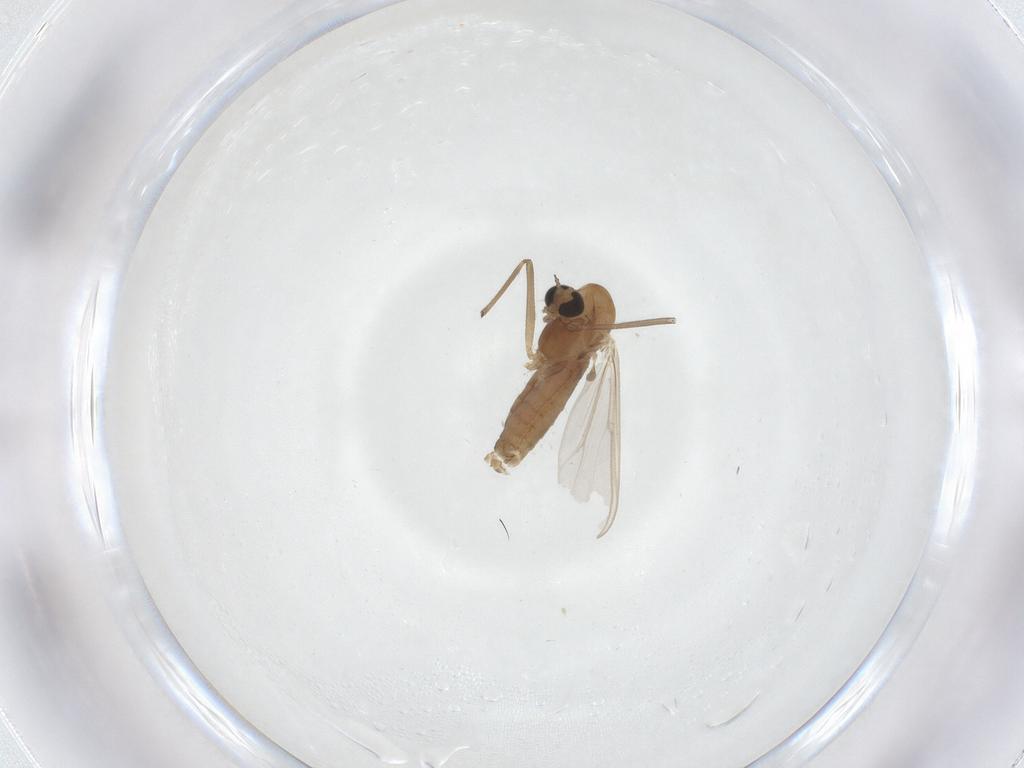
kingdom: Animalia
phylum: Arthropoda
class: Insecta
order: Diptera
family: Chironomidae
